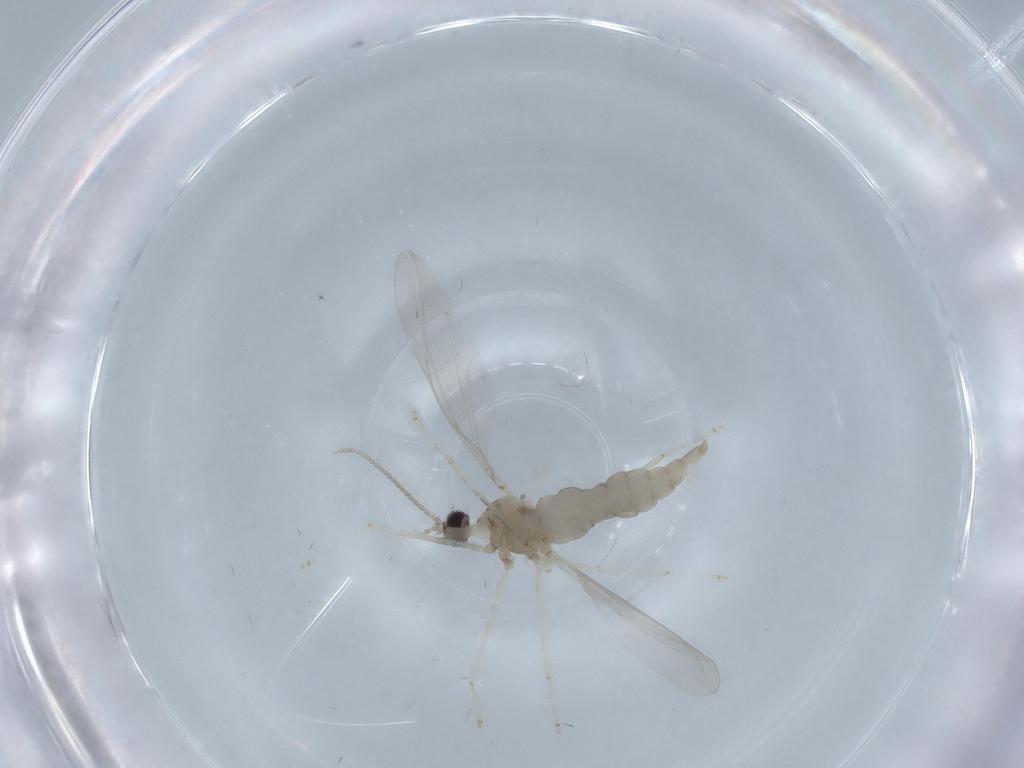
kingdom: Animalia
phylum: Arthropoda
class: Insecta
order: Diptera
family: Cecidomyiidae
